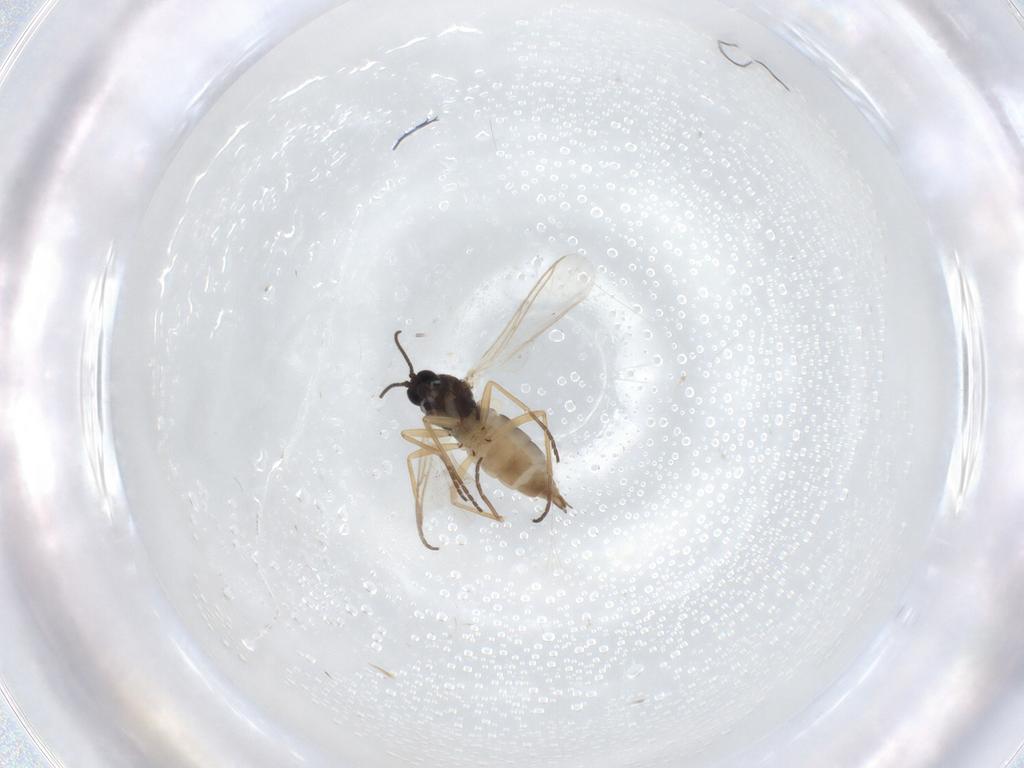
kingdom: Animalia
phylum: Arthropoda
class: Insecta
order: Diptera
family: Sciaridae
